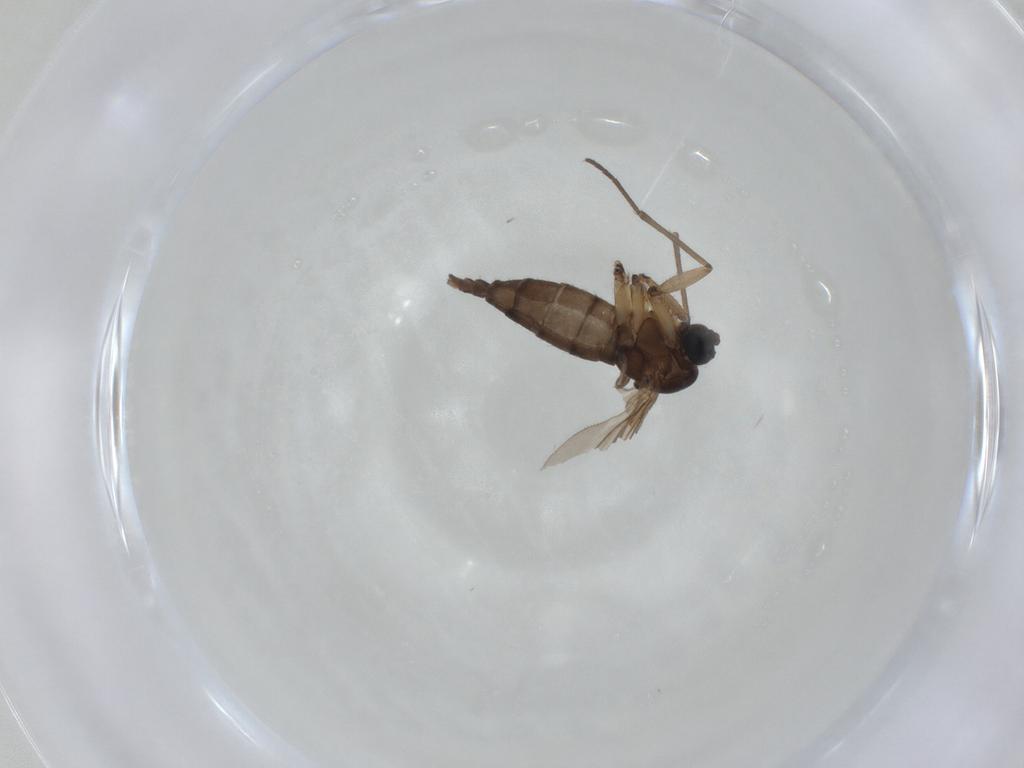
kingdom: Animalia
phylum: Arthropoda
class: Insecta
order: Diptera
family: Sciaridae
